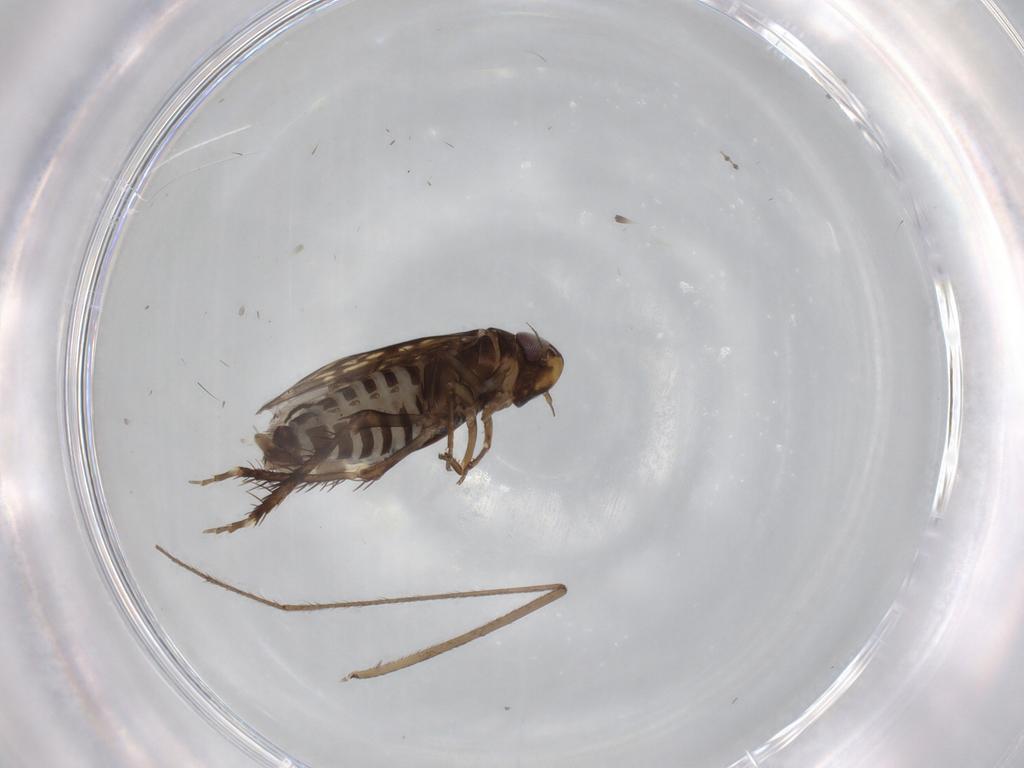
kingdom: Animalia
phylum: Arthropoda
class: Insecta
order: Hemiptera
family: Cicadellidae
